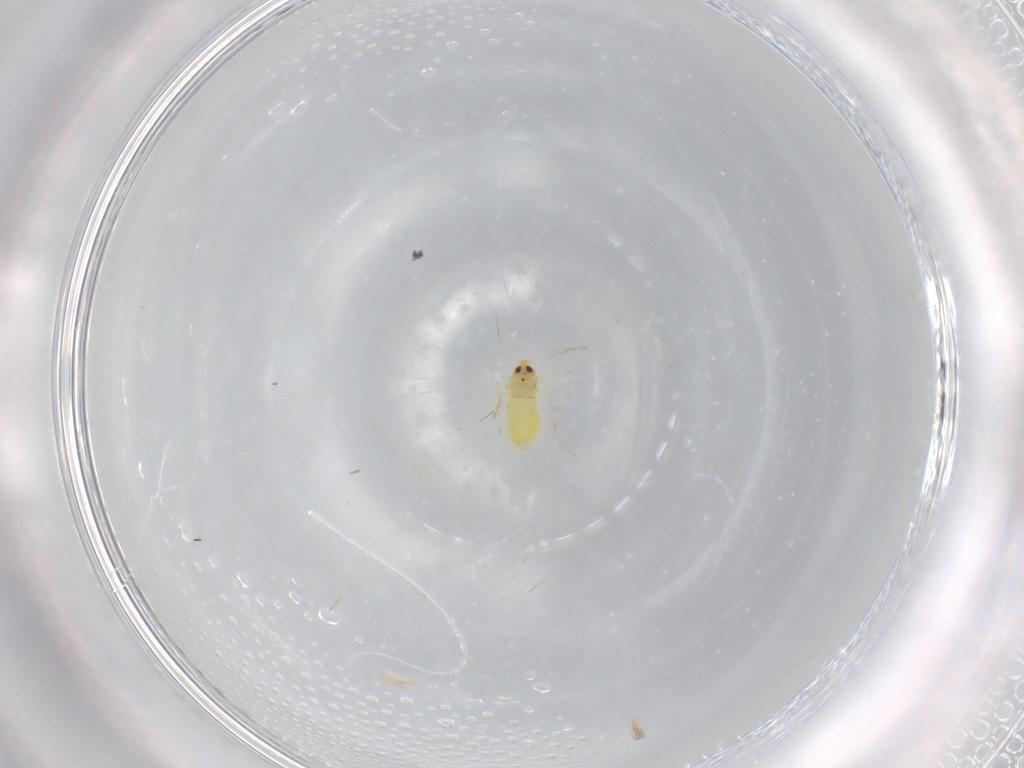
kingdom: Animalia
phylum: Arthropoda
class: Insecta
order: Hemiptera
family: Aleyrodidae
